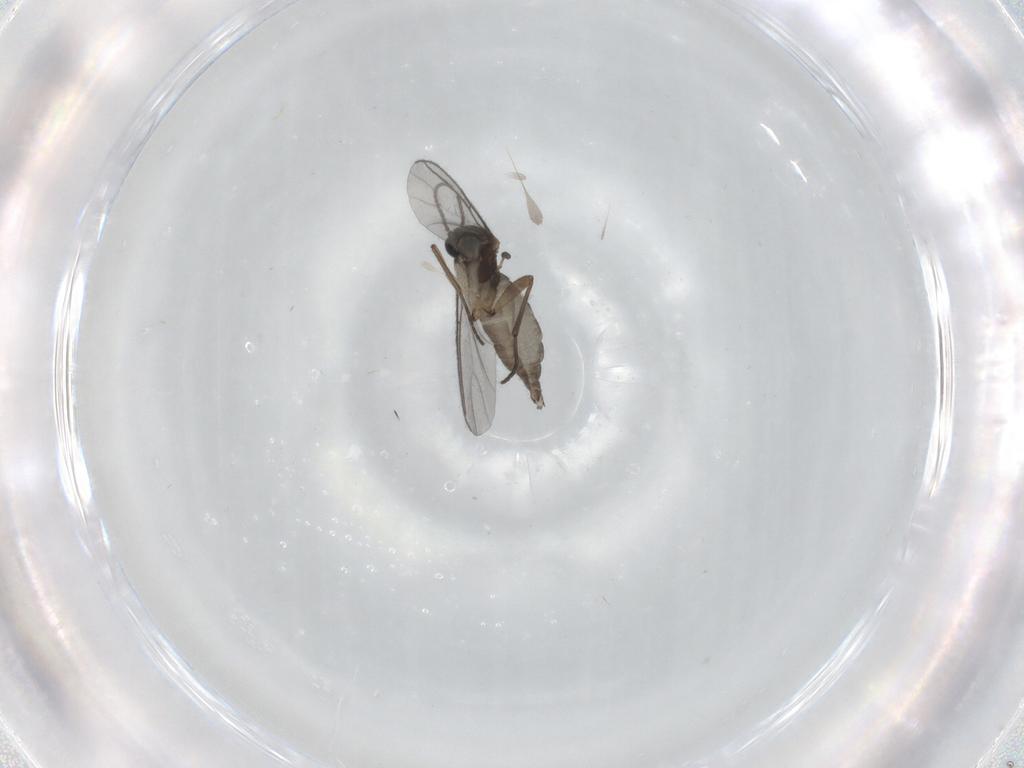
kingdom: Animalia
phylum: Arthropoda
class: Insecta
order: Diptera
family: Sciaridae
